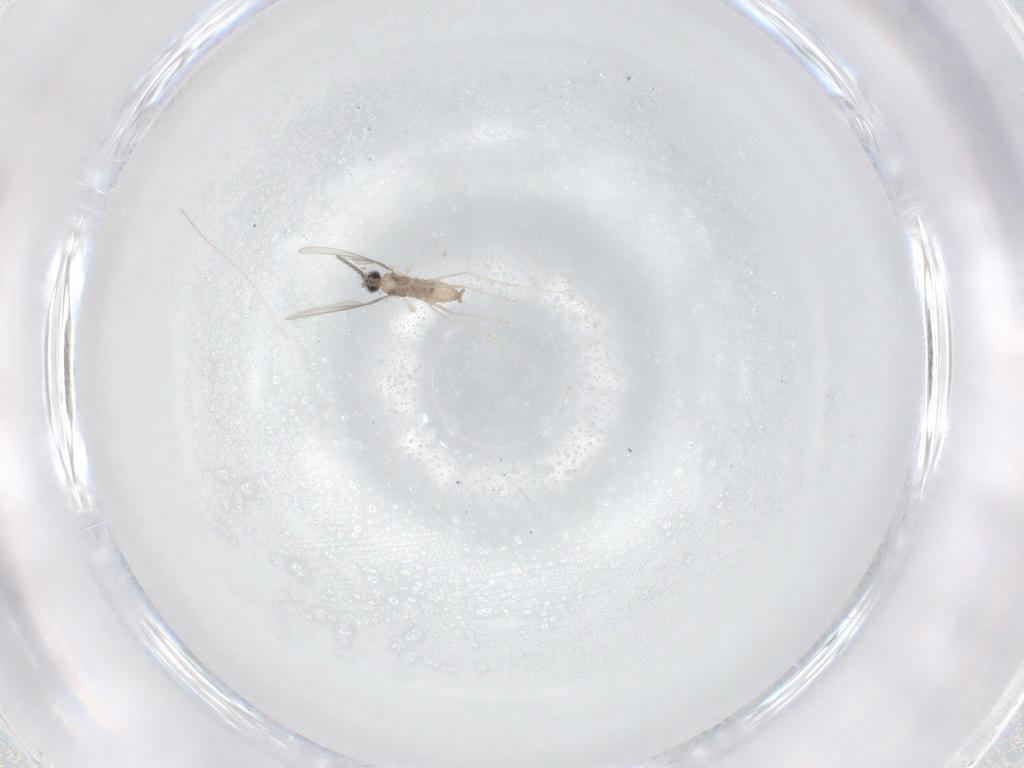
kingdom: Animalia
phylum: Arthropoda
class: Insecta
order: Diptera
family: Cecidomyiidae
